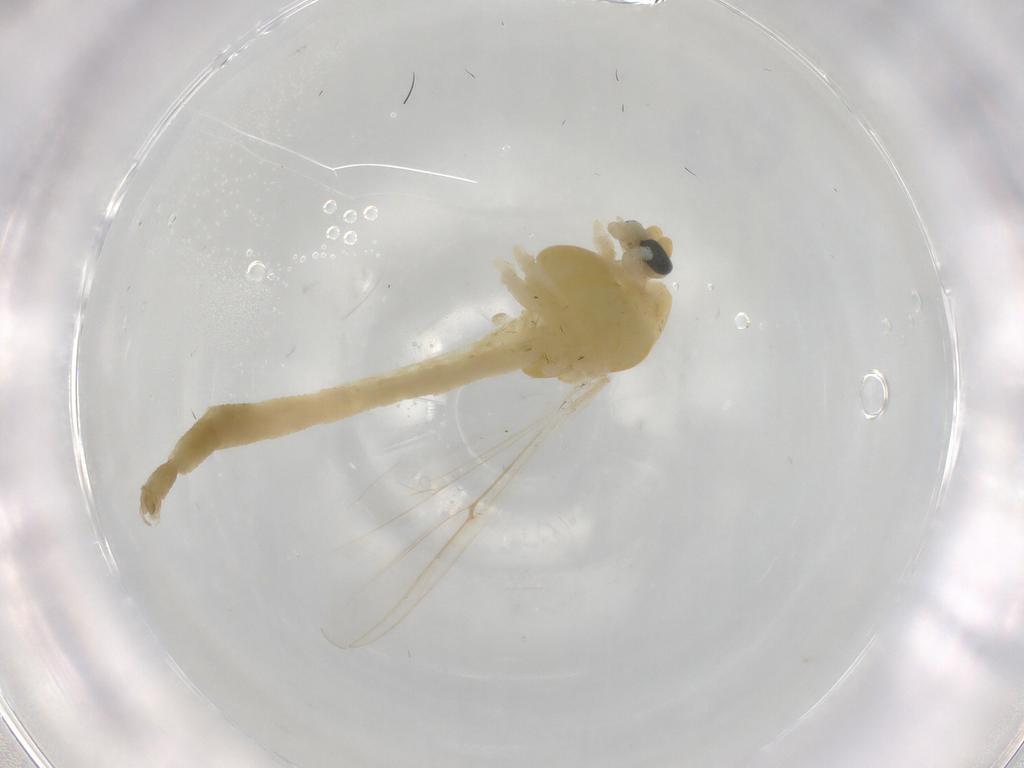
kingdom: Animalia
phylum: Arthropoda
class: Insecta
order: Diptera
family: Chironomidae
